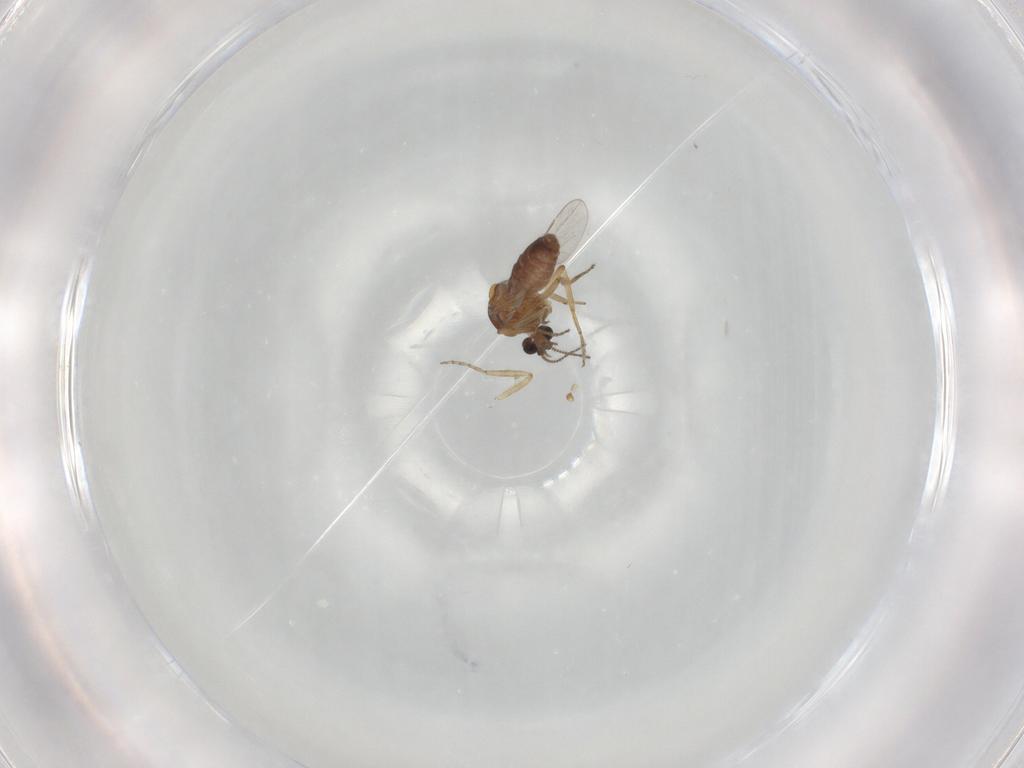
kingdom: Animalia
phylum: Arthropoda
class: Insecta
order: Diptera
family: Ceratopogonidae
